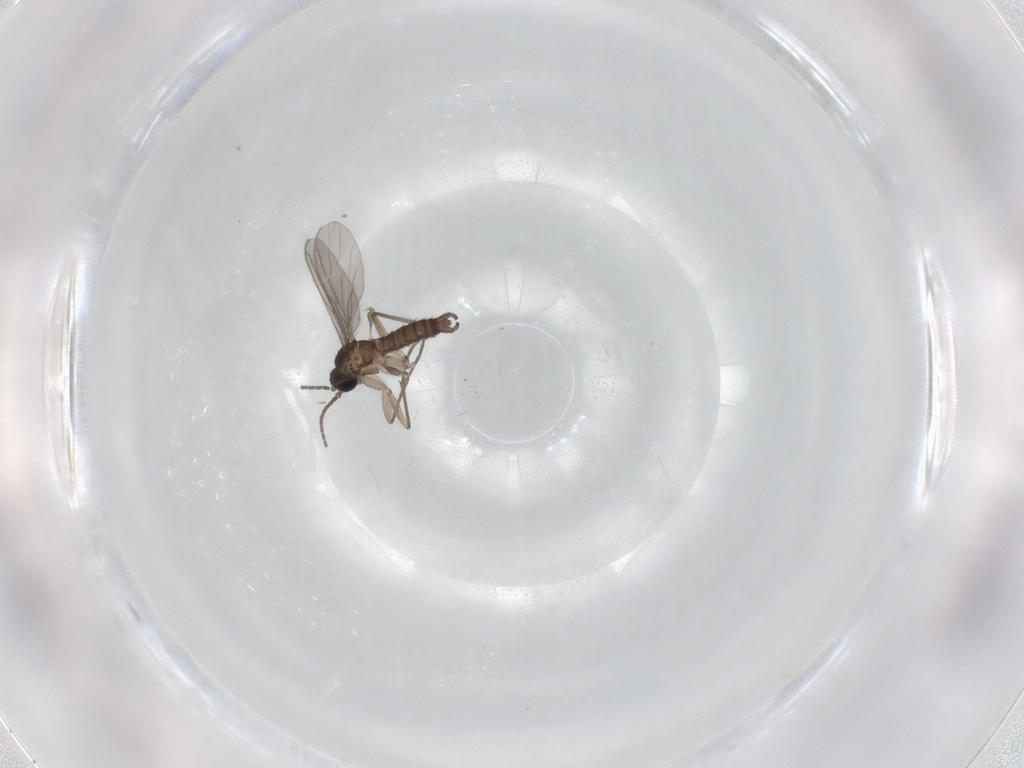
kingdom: Animalia
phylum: Arthropoda
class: Insecta
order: Diptera
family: Sciaridae
